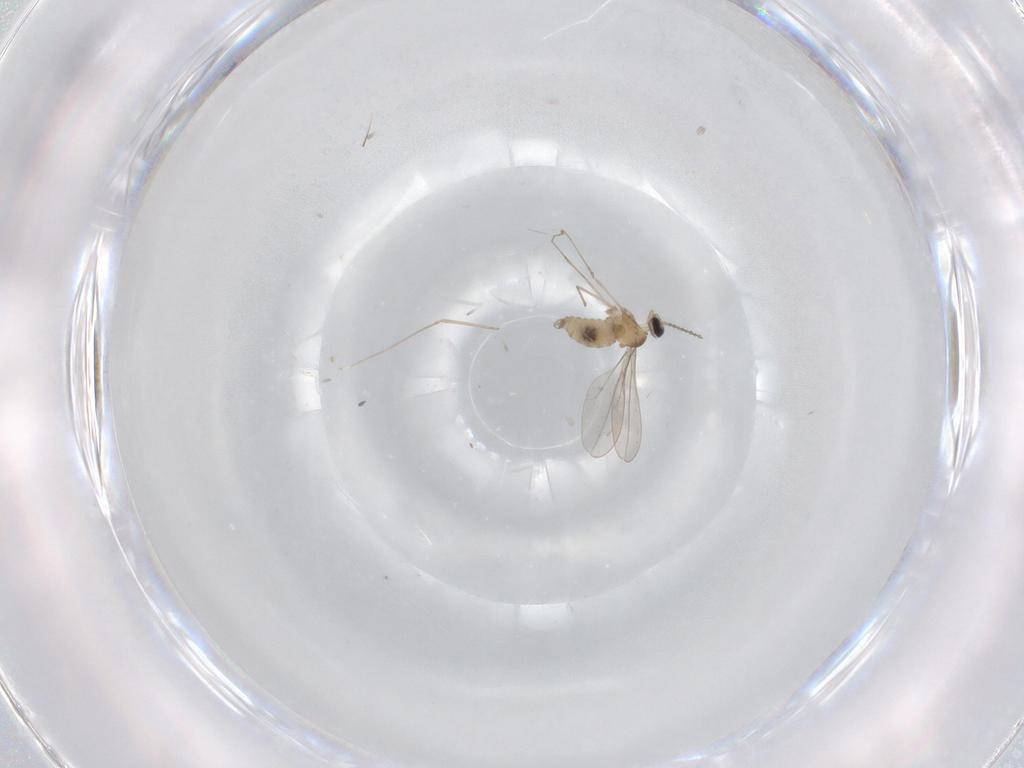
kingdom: Animalia
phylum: Arthropoda
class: Insecta
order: Diptera
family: Cecidomyiidae
